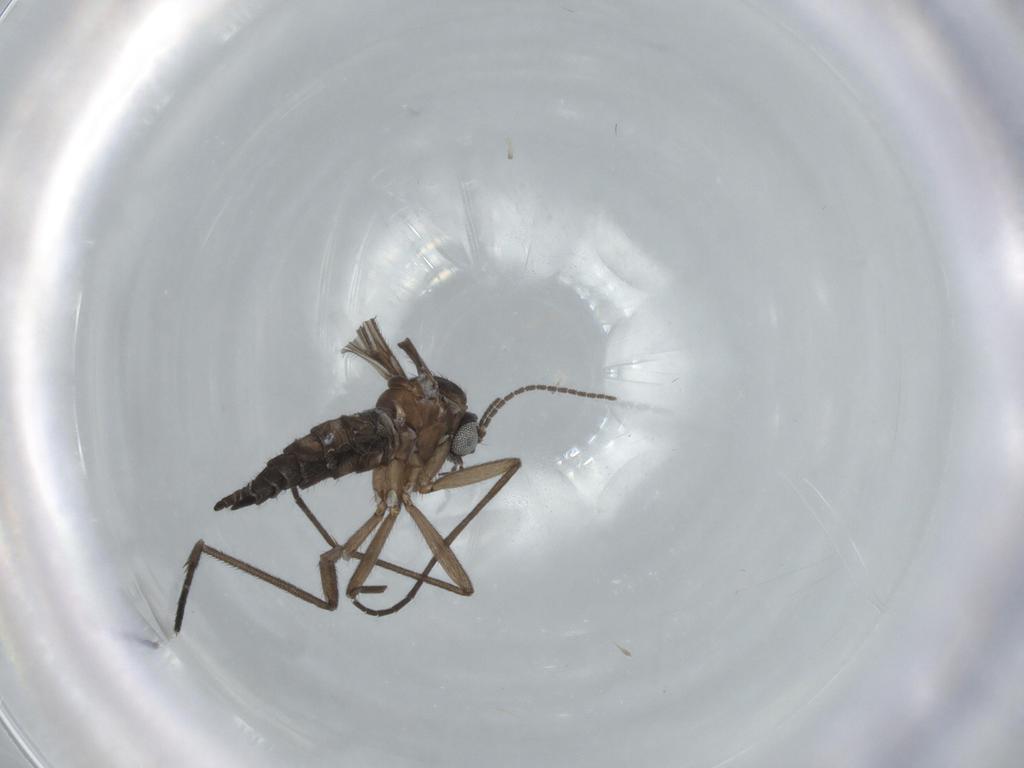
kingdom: Animalia
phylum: Arthropoda
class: Insecta
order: Diptera
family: Sciaridae
